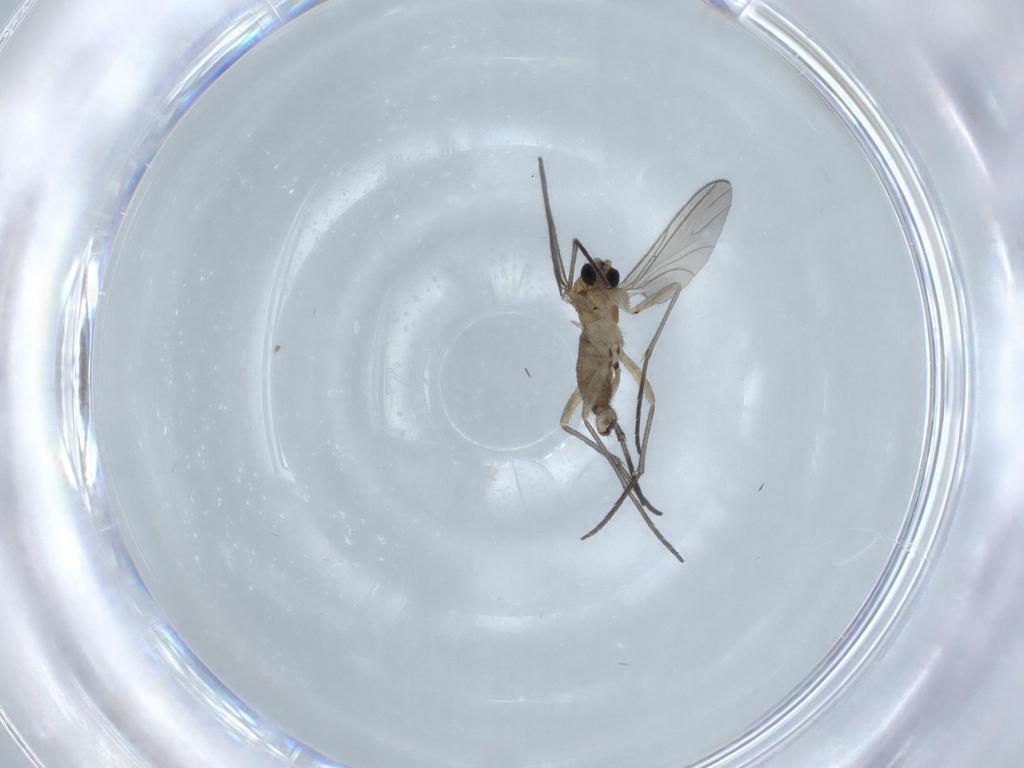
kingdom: Animalia
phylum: Arthropoda
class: Insecta
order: Diptera
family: Sciaridae
